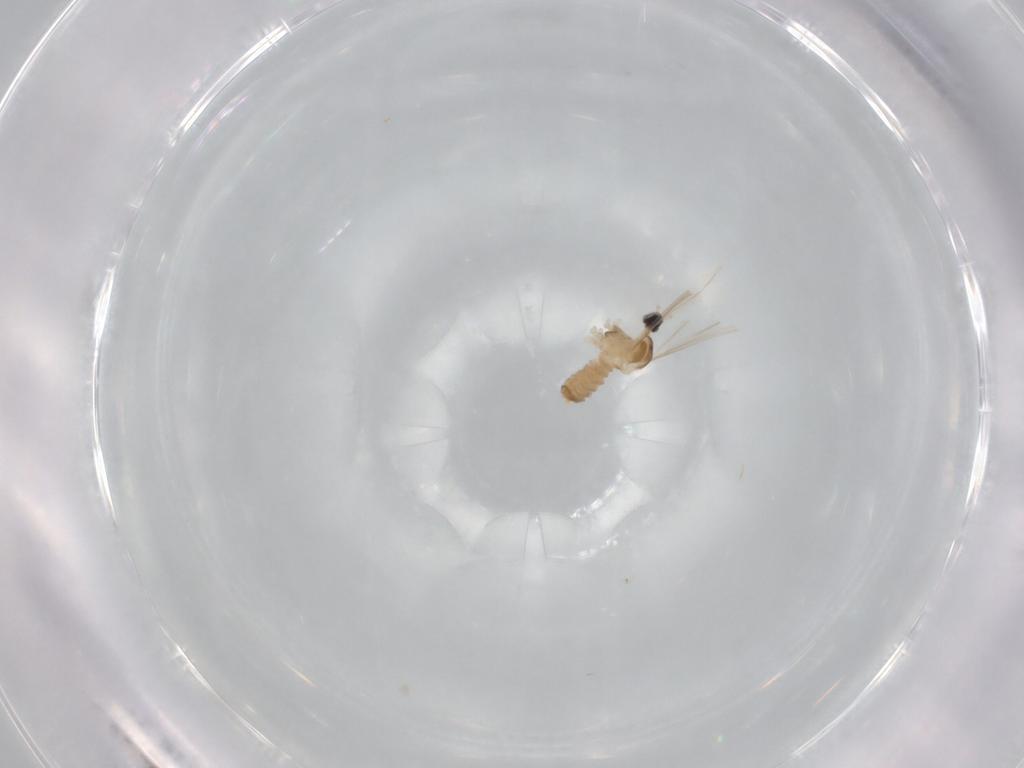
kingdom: Animalia
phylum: Arthropoda
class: Insecta
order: Diptera
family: Cecidomyiidae
